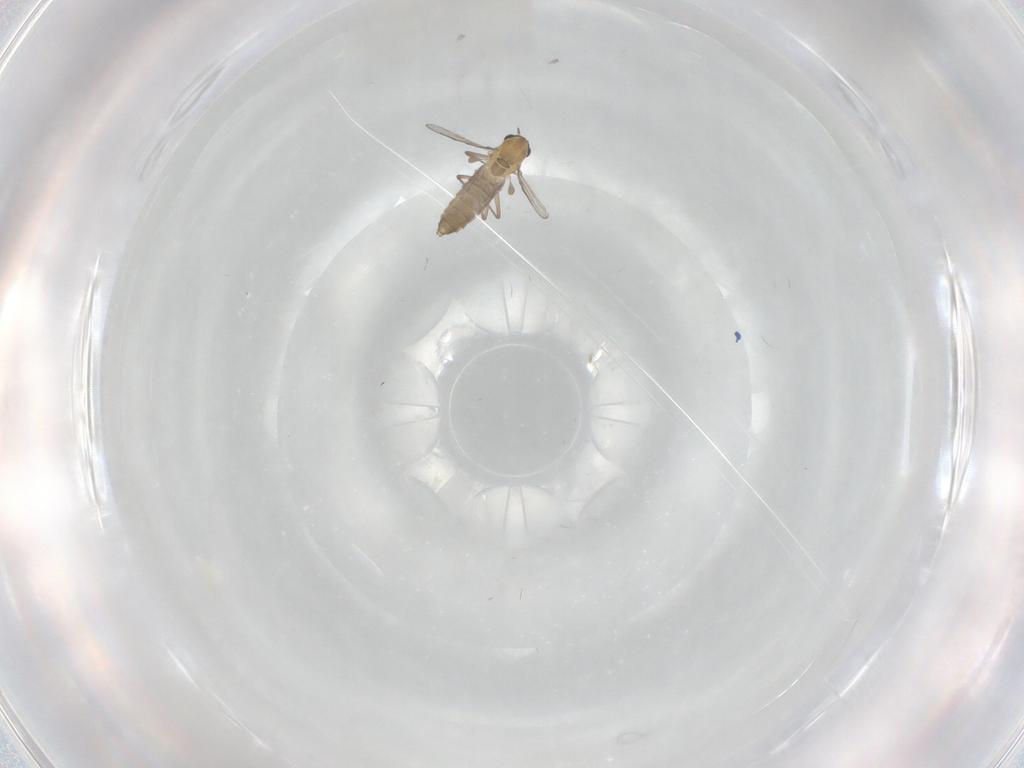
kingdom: Animalia
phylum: Arthropoda
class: Insecta
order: Diptera
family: Chironomidae
